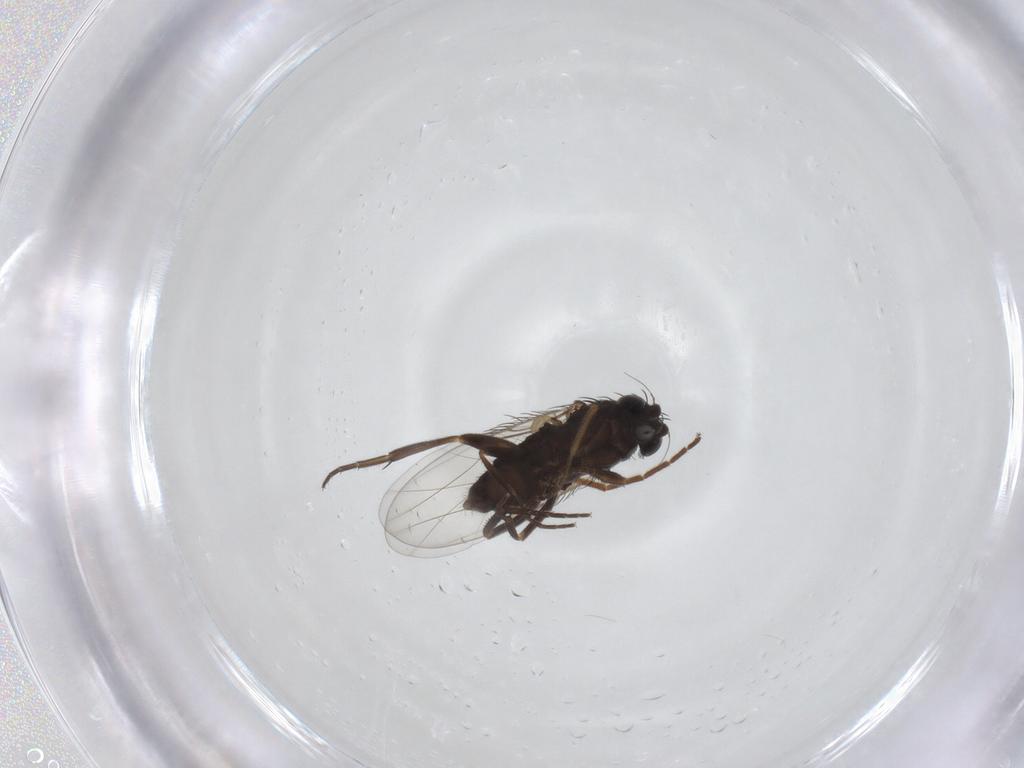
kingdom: Animalia
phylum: Arthropoda
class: Insecta
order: Diptera
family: Phoridae
